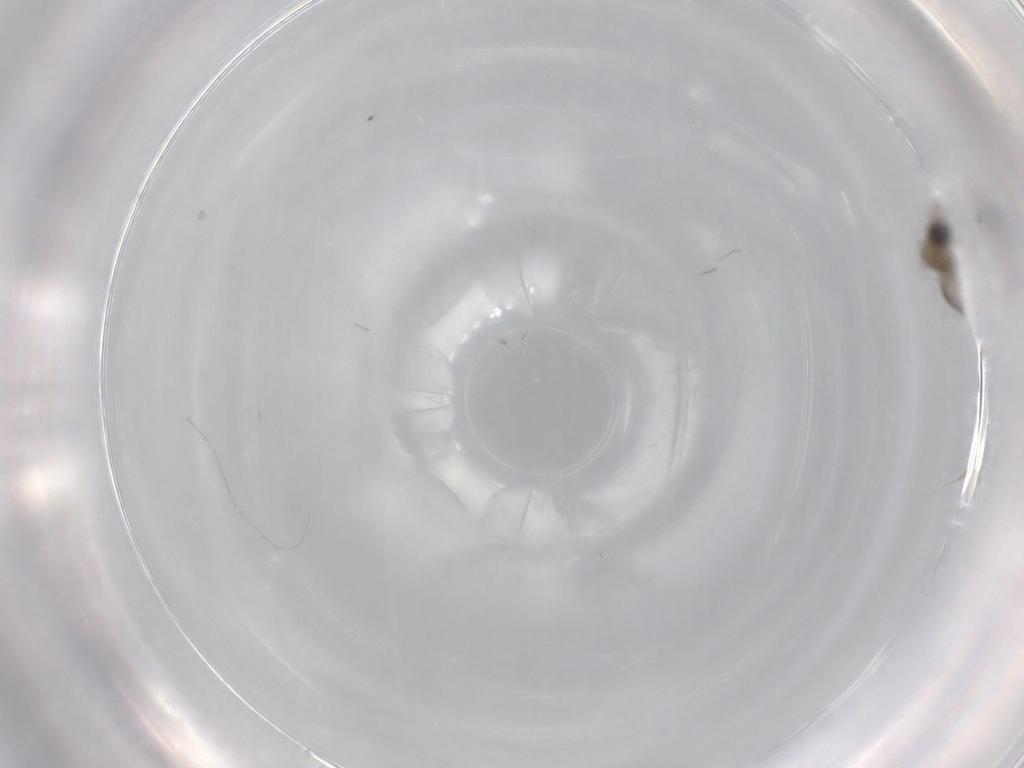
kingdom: Animalia
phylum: Arthropoda
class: Insecta
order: Diptera
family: Cecidomyiidae
